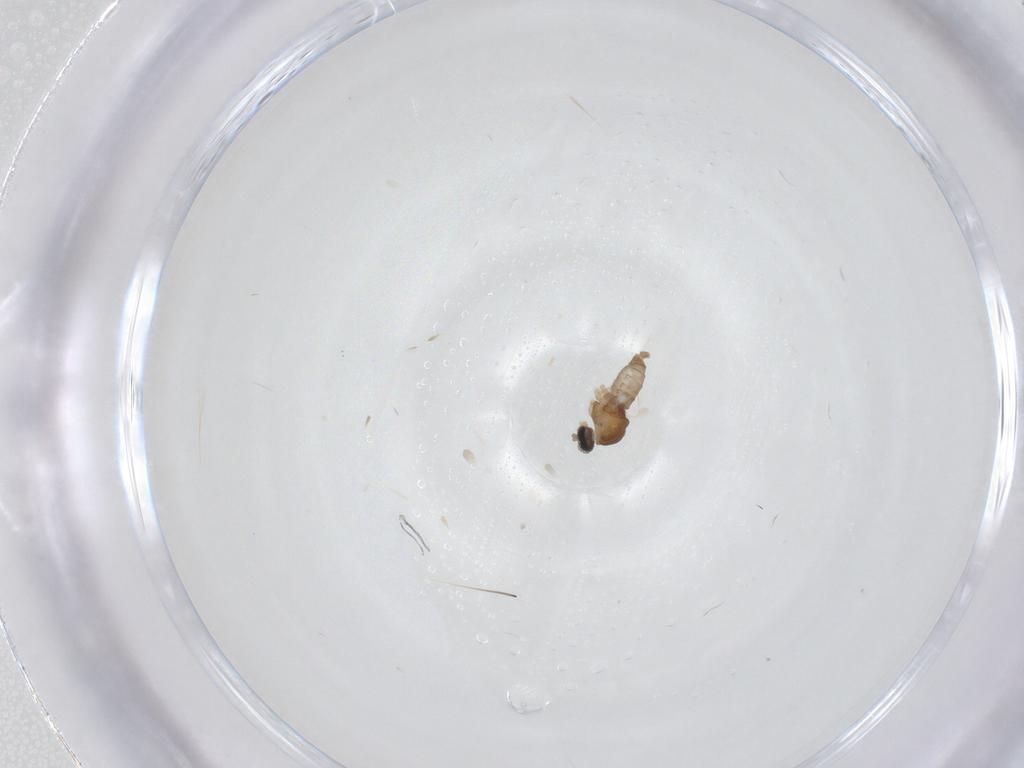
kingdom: Animalia
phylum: Arthropoda
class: Insecta
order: Diptera
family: Cecidomyiidae
